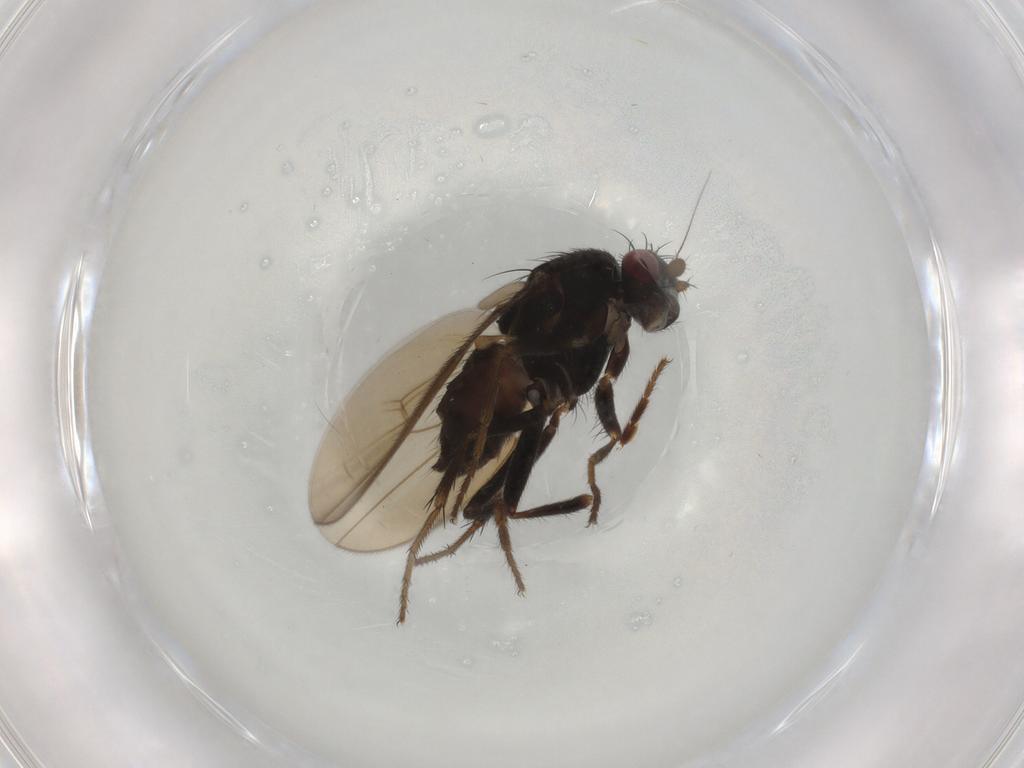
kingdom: Animalia
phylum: Arthropoda
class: Insecta
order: Diptera
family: Sphaeroceridae
